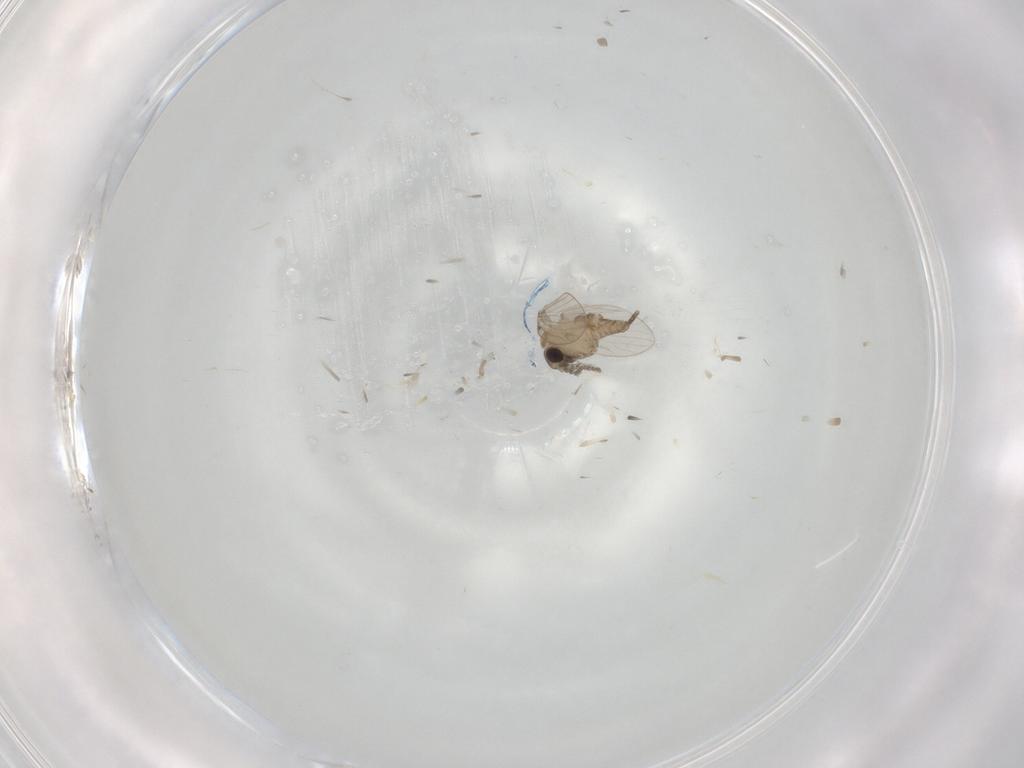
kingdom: Animalia
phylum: Arthropoda
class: Insecta
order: Diptera
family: Psychodidae
